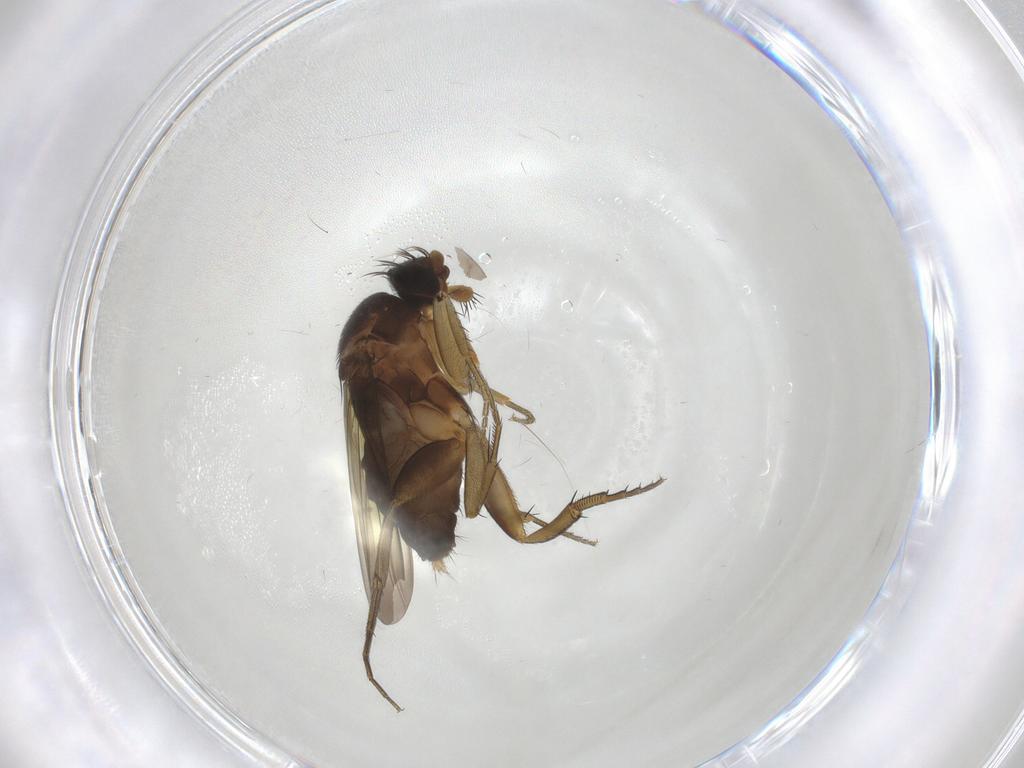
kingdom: Animalia
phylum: Arthropoda
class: Insecta
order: Diptera
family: Phoridae
